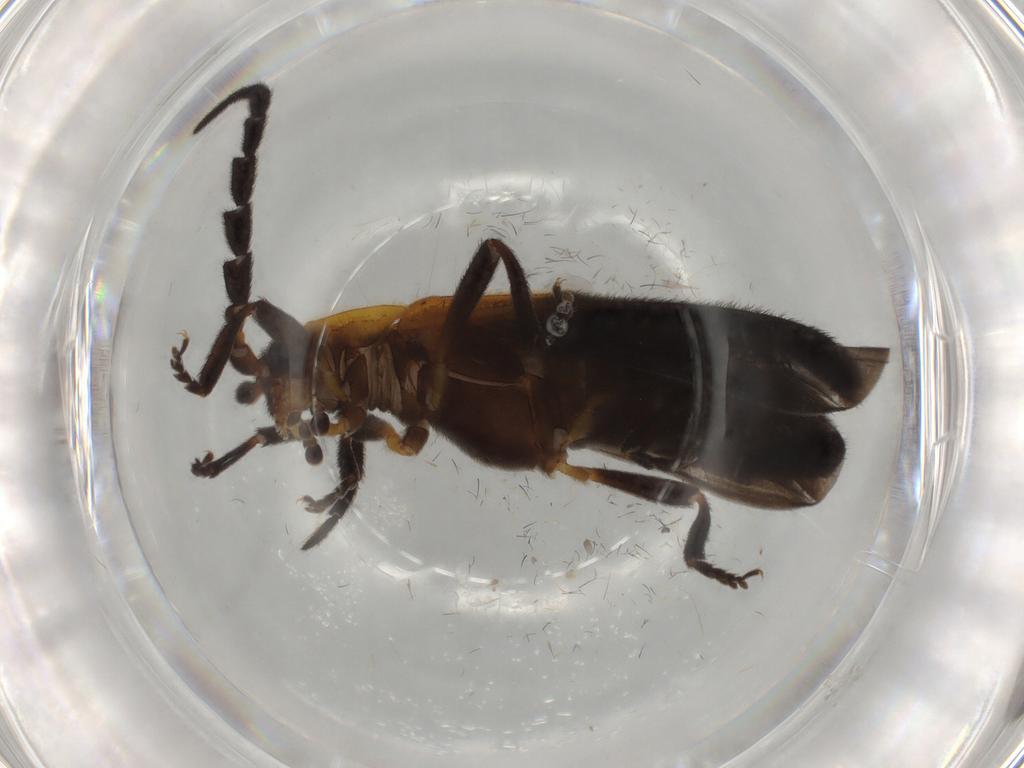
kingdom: Animalia
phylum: Arthropoda
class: Insecta
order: Coleoptera
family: Lycidae
